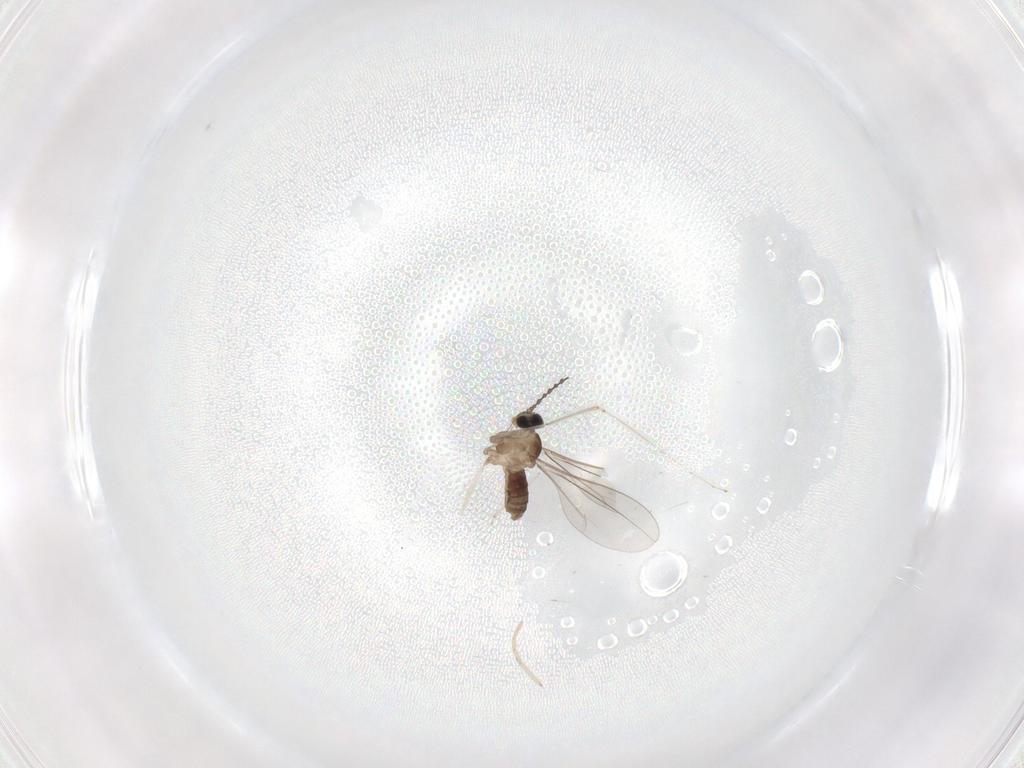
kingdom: Animalia
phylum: Arthropoda
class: Insecta
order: Diptera
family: Cecidomyiidae
